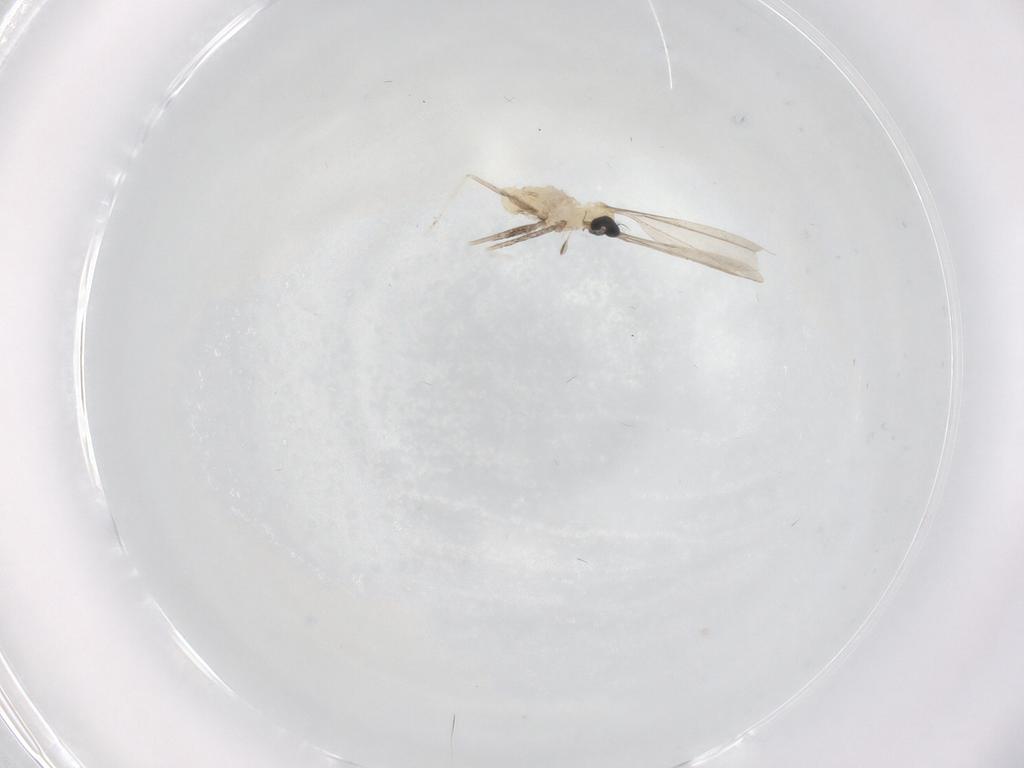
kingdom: Animalia
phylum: Arthropoda
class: Insecta
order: Diptera
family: Cecidomyiidae
